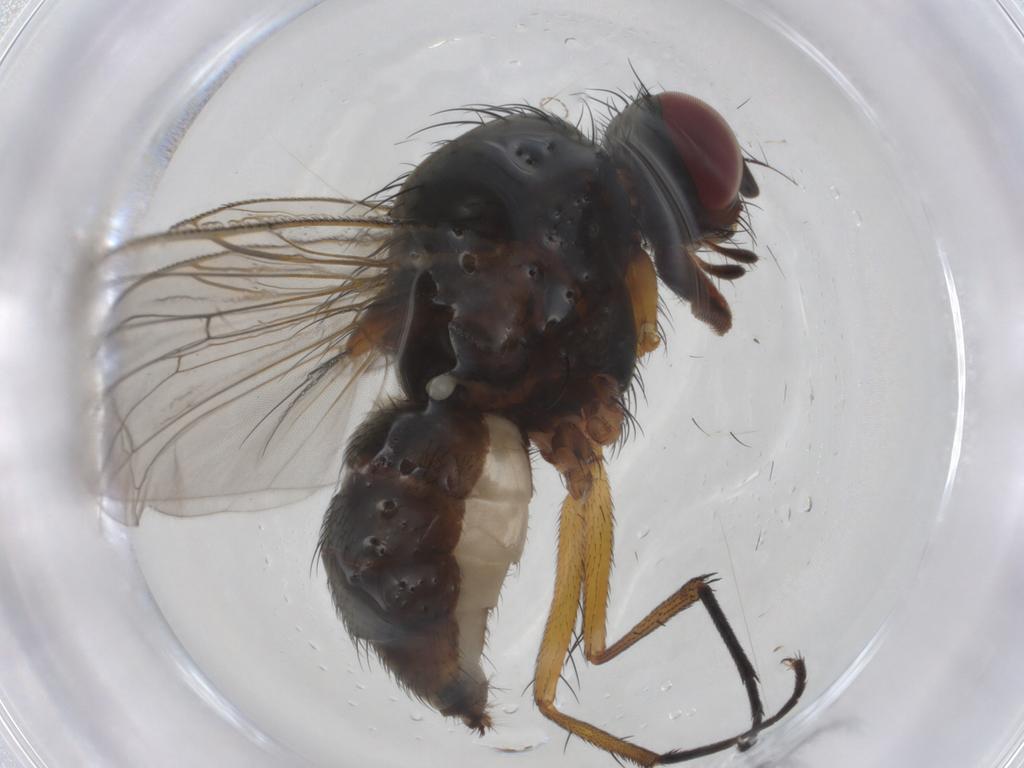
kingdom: Animalia
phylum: Arthropoda
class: Insecta
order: Diptera
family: Anthomyiidae
